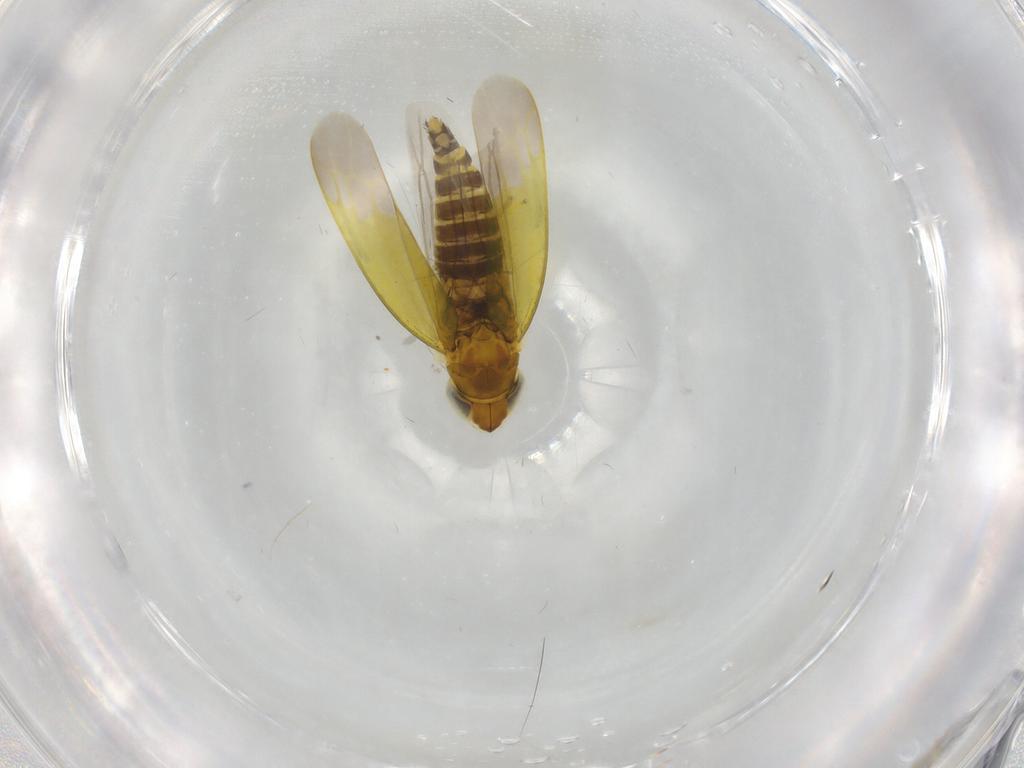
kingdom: Animalia
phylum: Arthropoda
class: Insecta
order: Hemiptera
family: Cicadellidae
